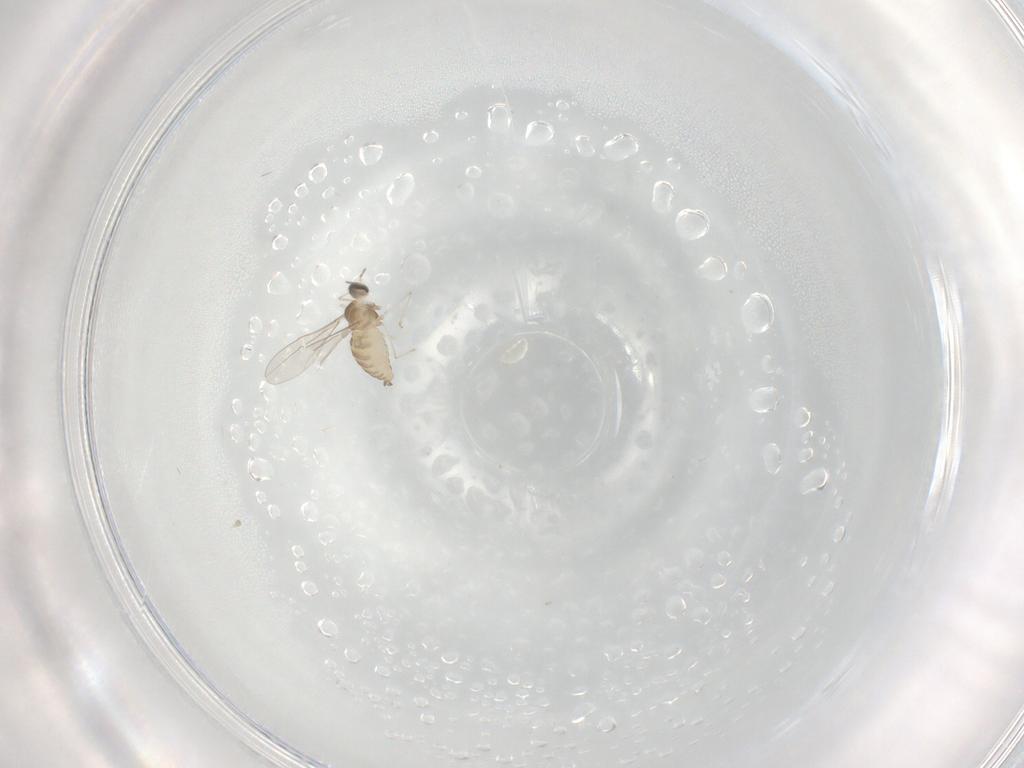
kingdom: Animalia
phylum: Arthropoda
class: Insecta
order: Diptera
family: Cecidomyiidae
